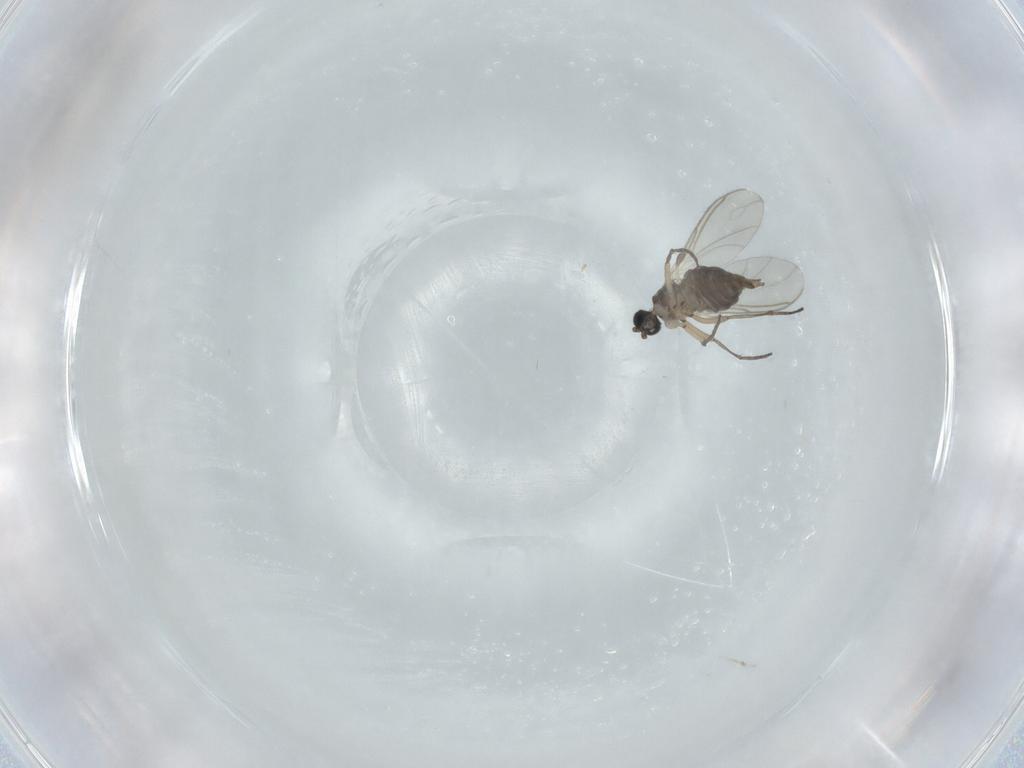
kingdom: Animalia
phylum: Arthropoda
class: Insecta
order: Diptera
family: Sciaridae
